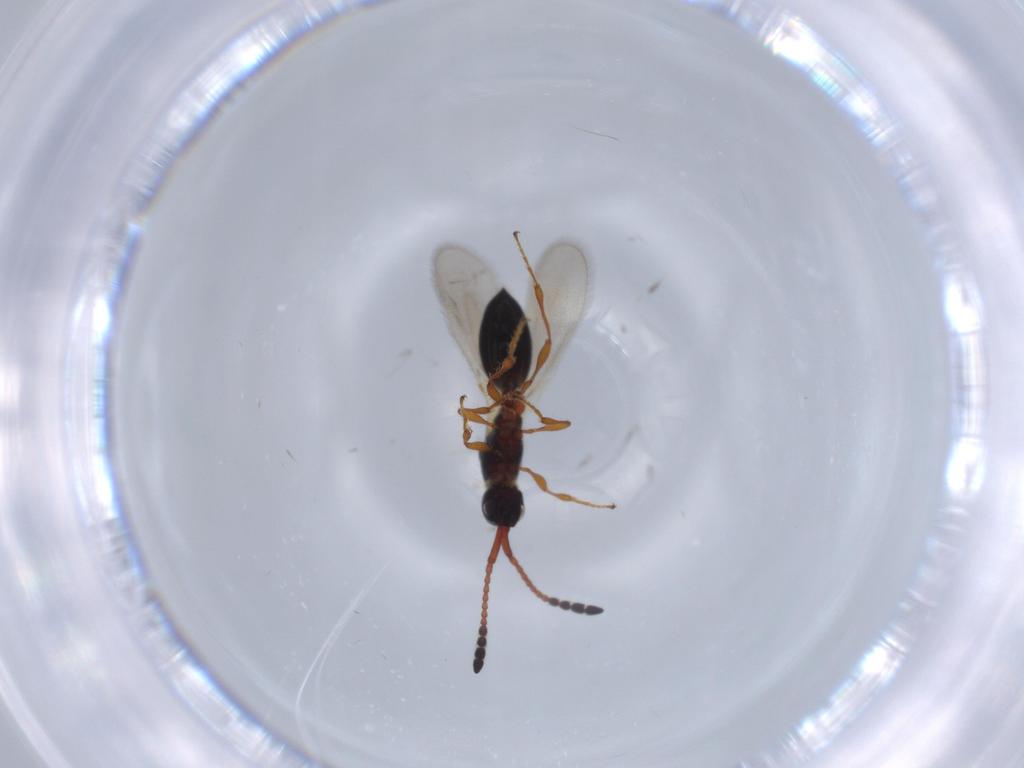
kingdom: Animalia
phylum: Arthropoda
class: Insecta
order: Hymenoptera
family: Diapriidae
